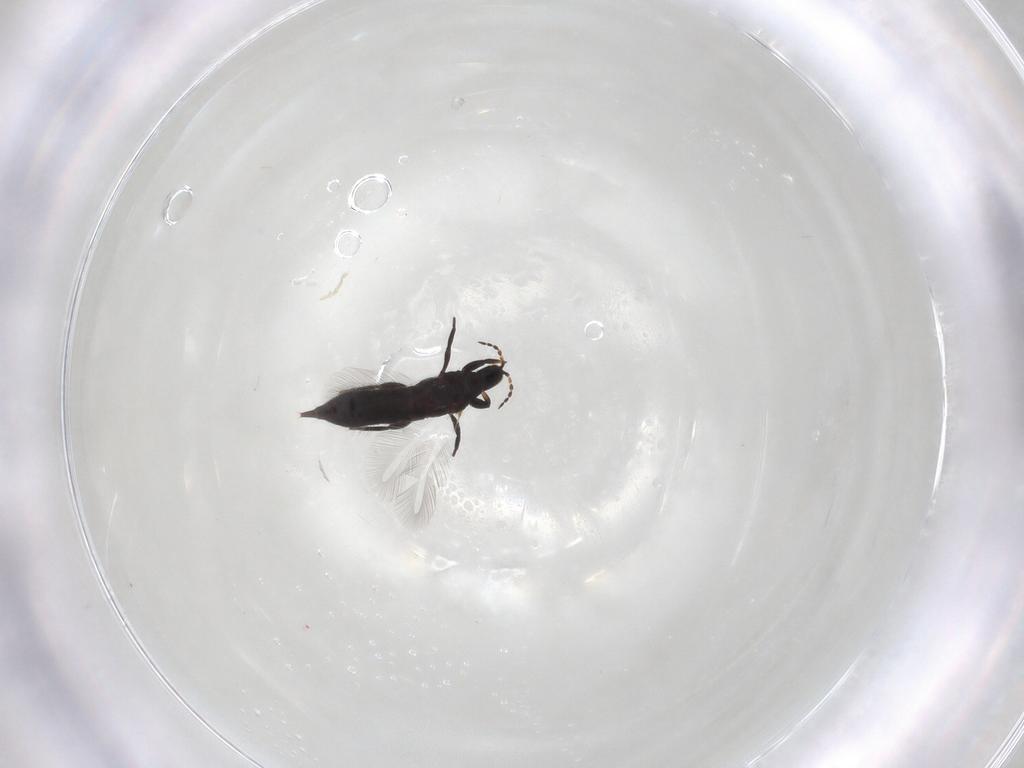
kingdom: Animalia
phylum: Arthropoda
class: Insecta
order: Thysanoptera
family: Phlaeothripidae
